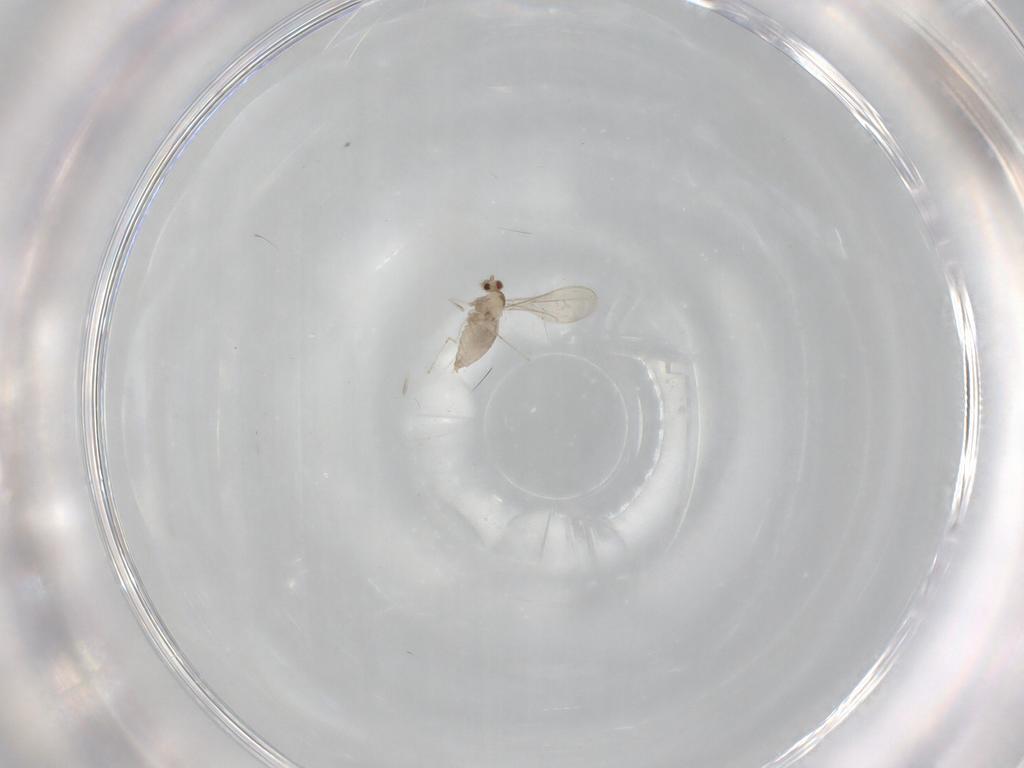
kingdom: Animalia
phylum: Arthropoda
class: Insecta
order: Diptera
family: Cecidomyiidae
